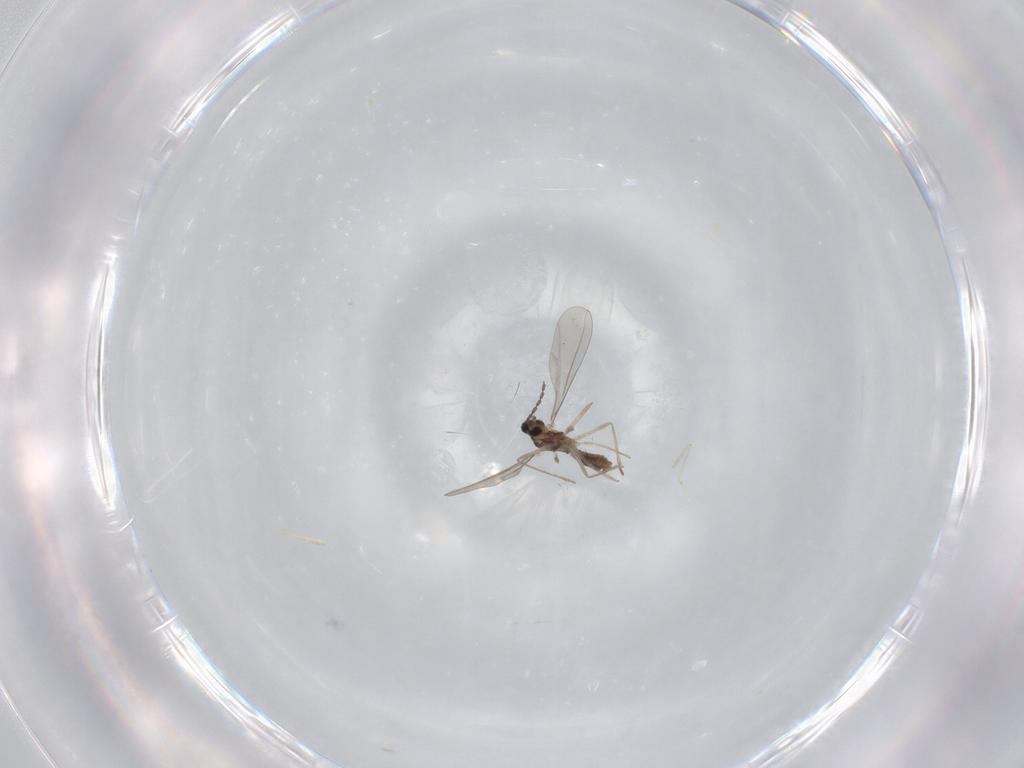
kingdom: Animalia
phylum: Arthropoda
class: Insecta
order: Diptera
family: Cecidomyiidae
